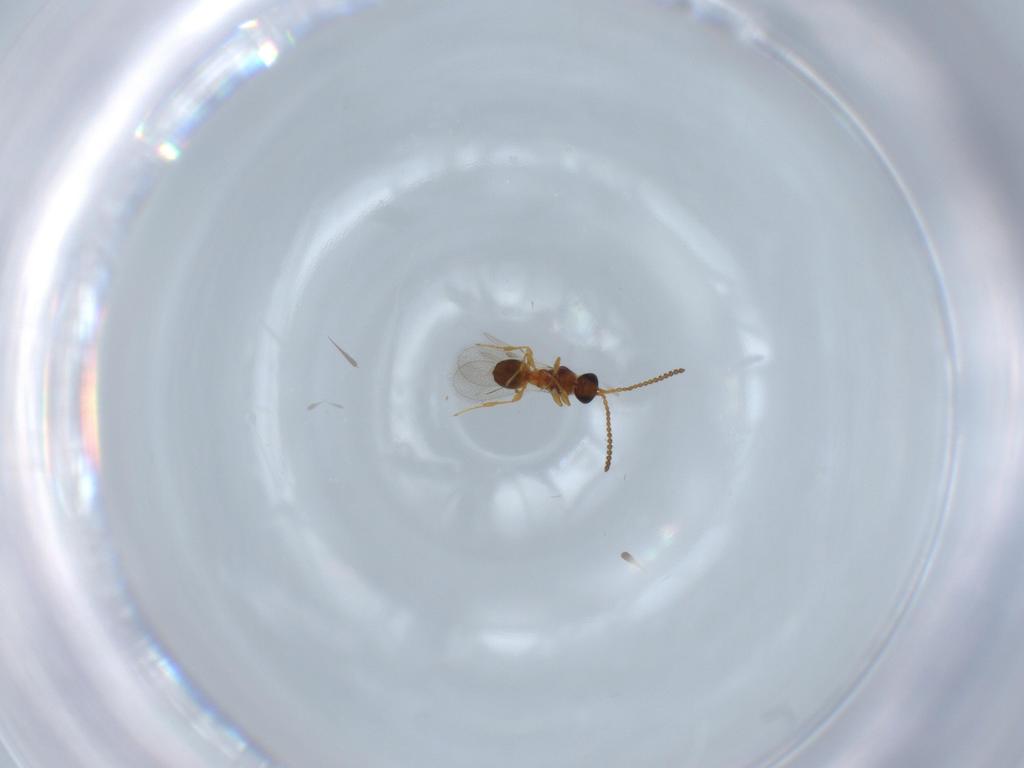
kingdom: Animalia
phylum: Arthropoda
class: Insecta
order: Hymenoptera
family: Diapriidae
